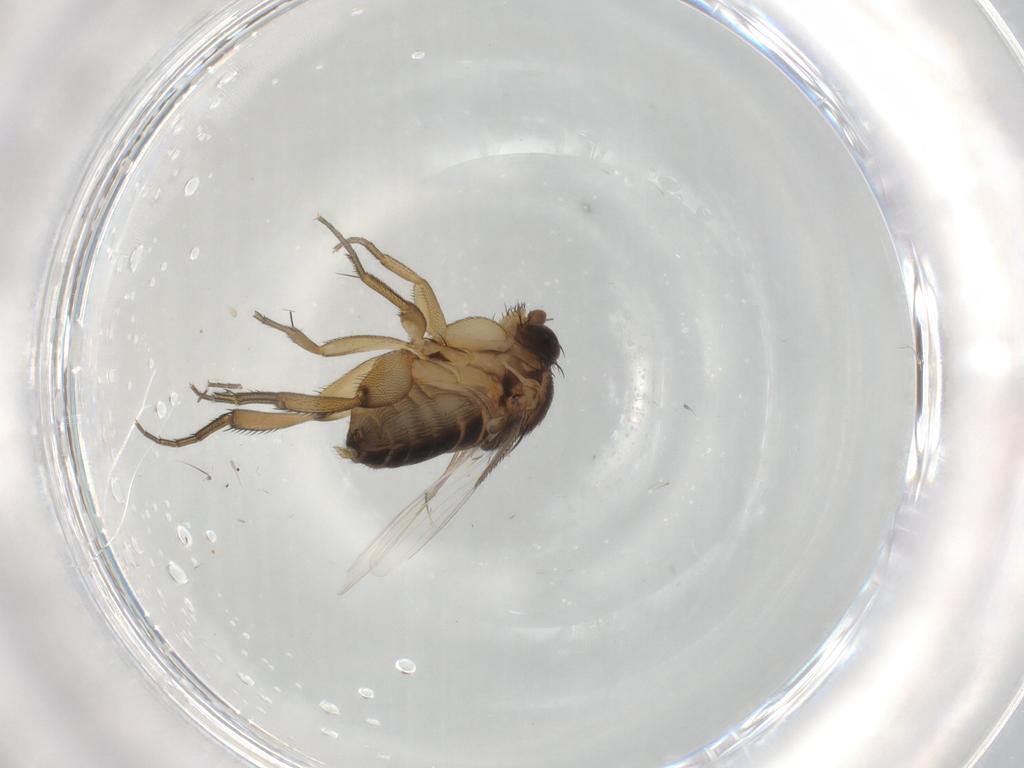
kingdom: Animalia
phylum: Arthropoda
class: Insecta
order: Diptera
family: Phoridae
